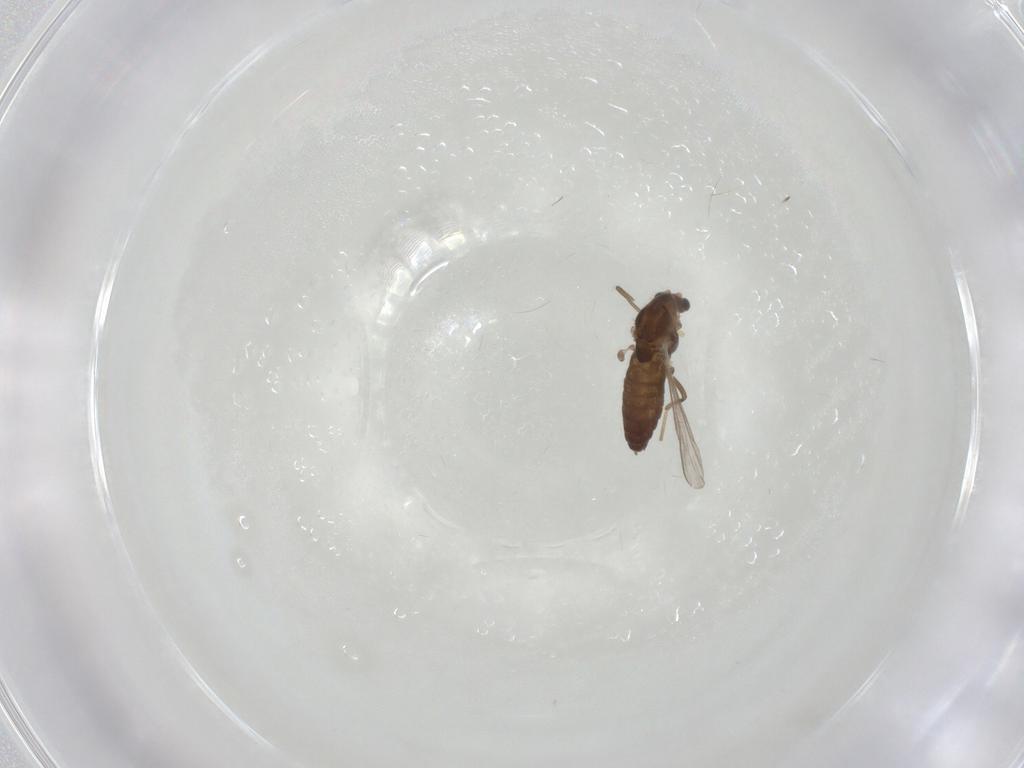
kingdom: Animalia
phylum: Arthropoda
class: Insecta
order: Diptera
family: Chironomidae
